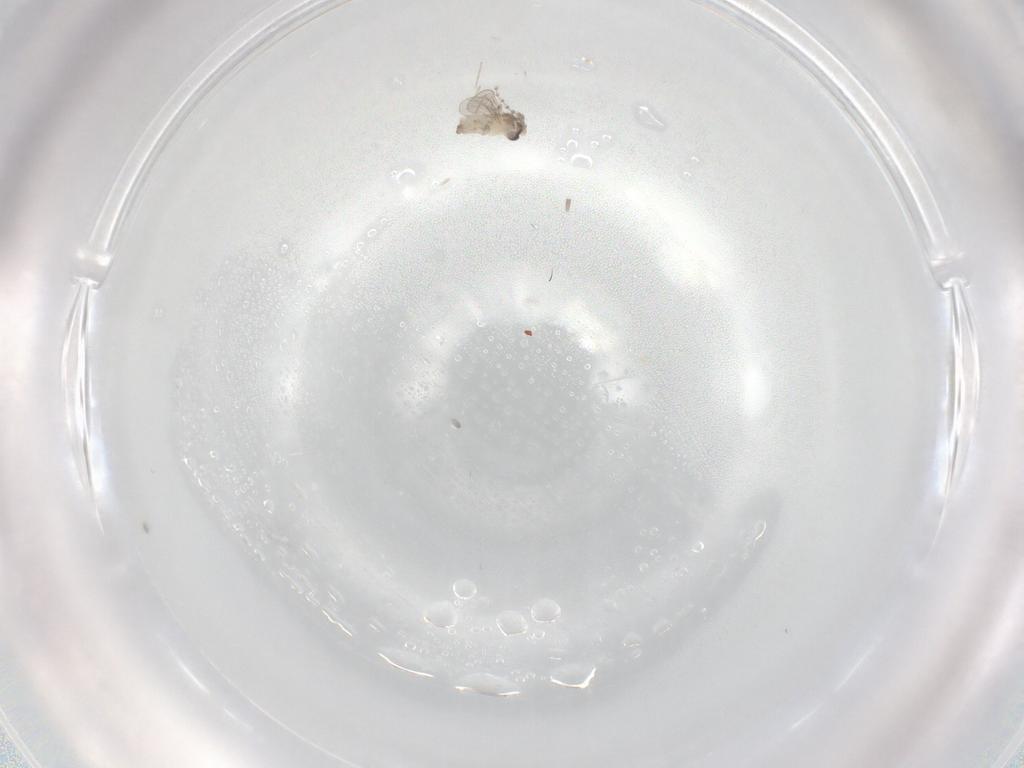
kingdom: Animalia
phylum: Arthropoda
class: Insecta
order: Diptera
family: Cecidomyiidae
